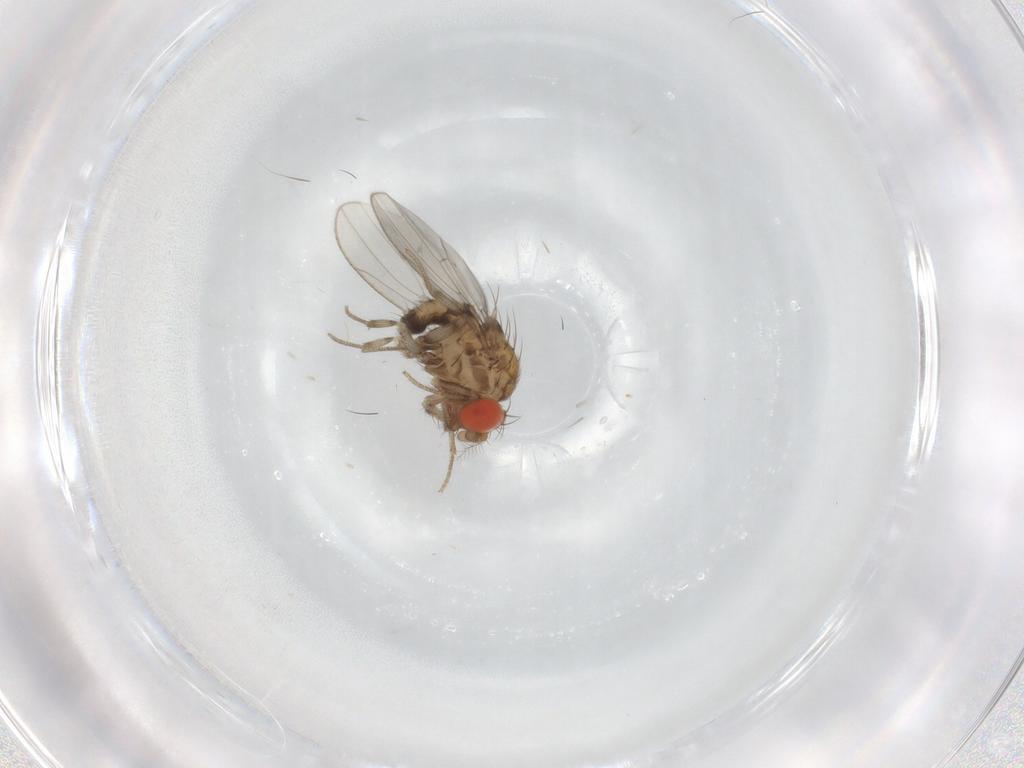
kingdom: Animalia
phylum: Arthropoda
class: Insecta
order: Diptera
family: Drosophilidae
